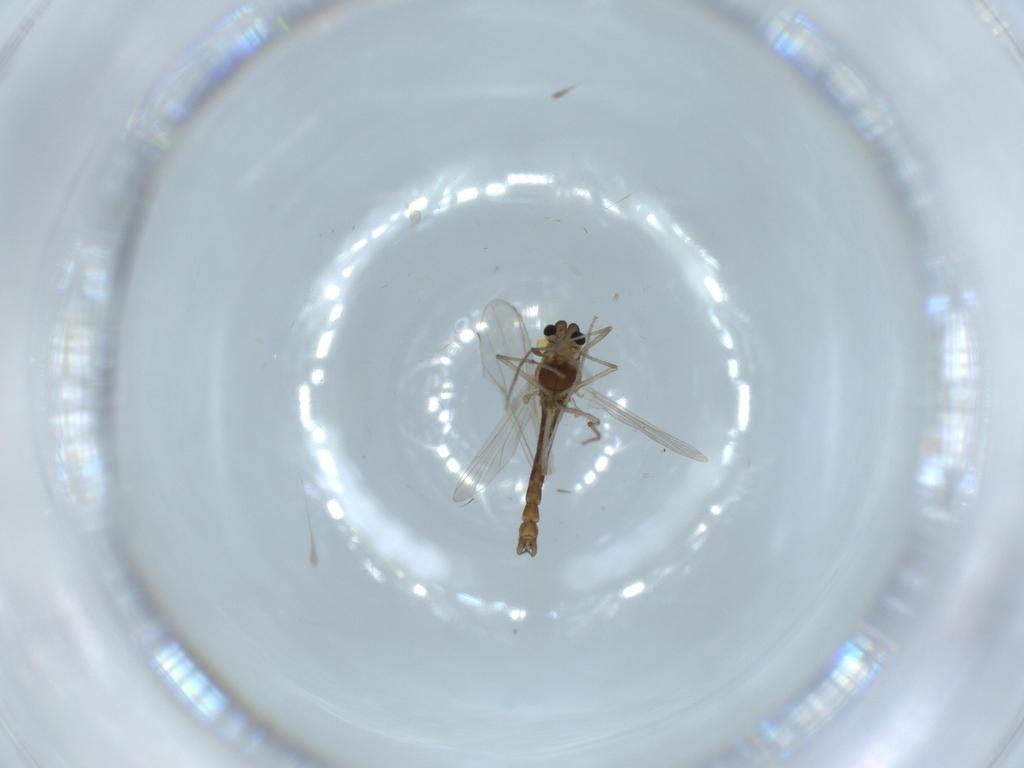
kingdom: Animalia
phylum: Arthropoda
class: Insecta
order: Diptera
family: Chironomidae
